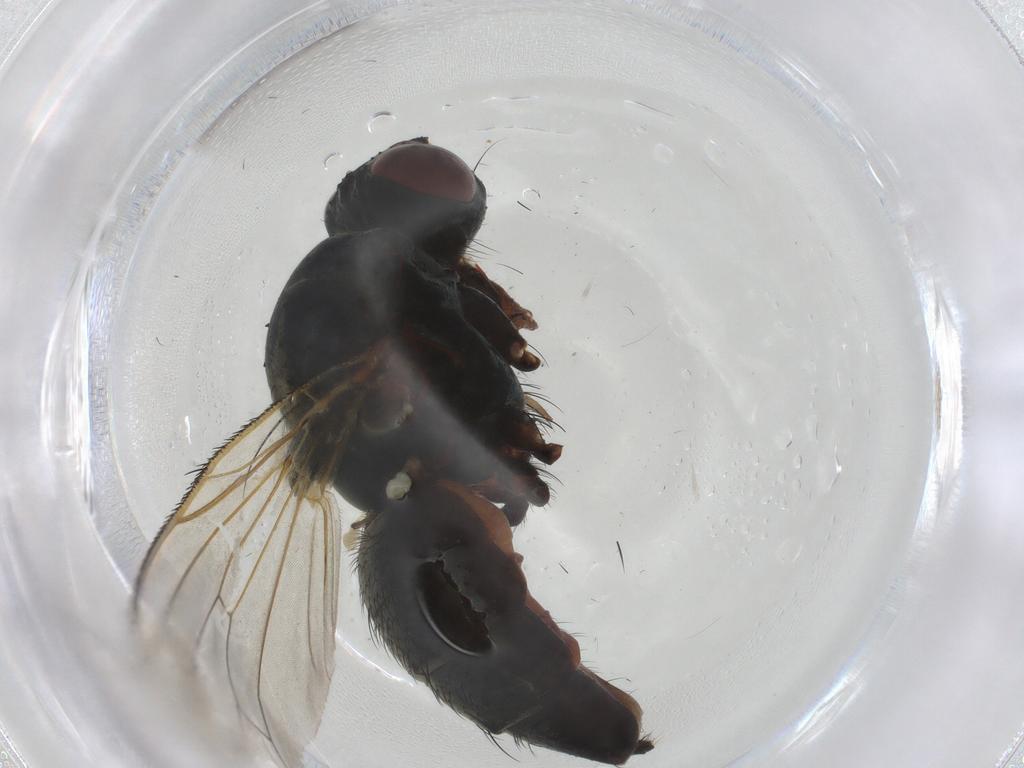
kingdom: Animalia
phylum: Arthropoda
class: Insecta
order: Diptera
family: Anthomyiidae
